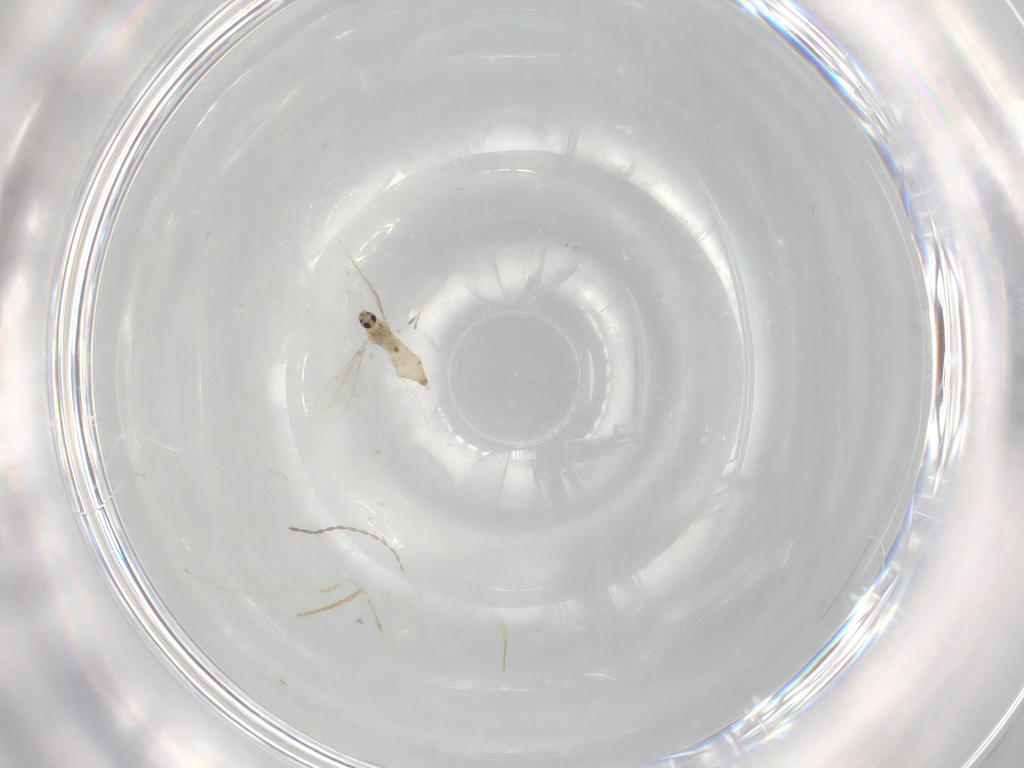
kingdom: Animalia
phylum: Arthropoda
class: Insecta
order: Diptera
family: Cecidomyiidae
